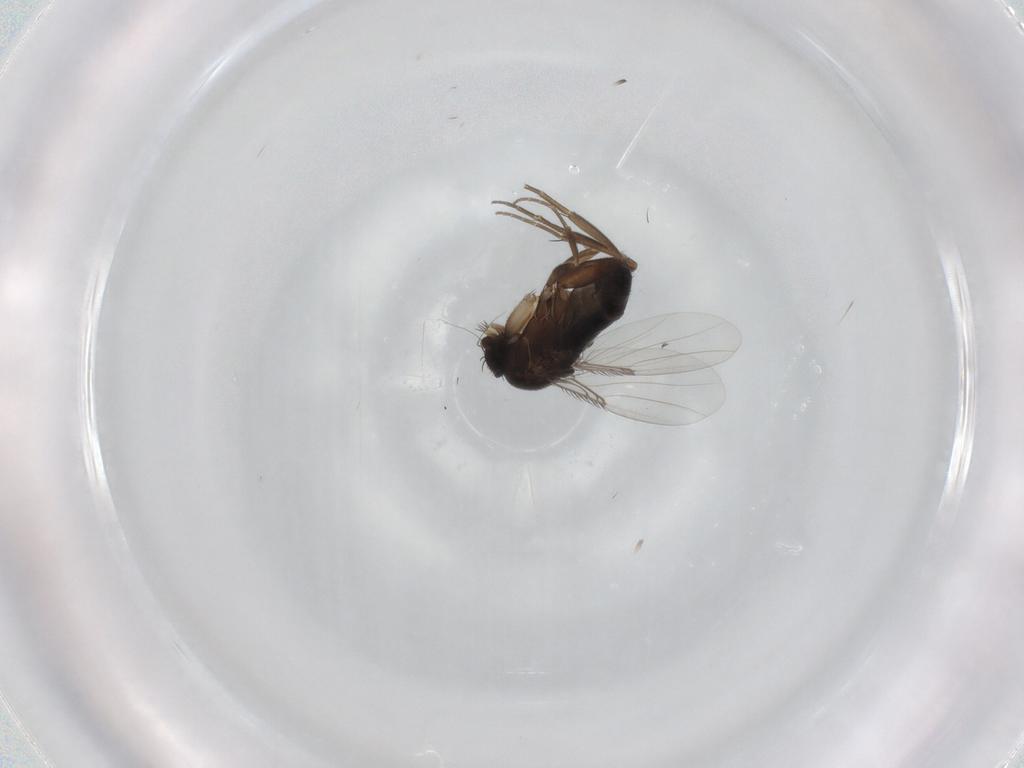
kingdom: Animalia
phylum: Arthropoda
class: Insecta
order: Diptera
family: Phoridae
